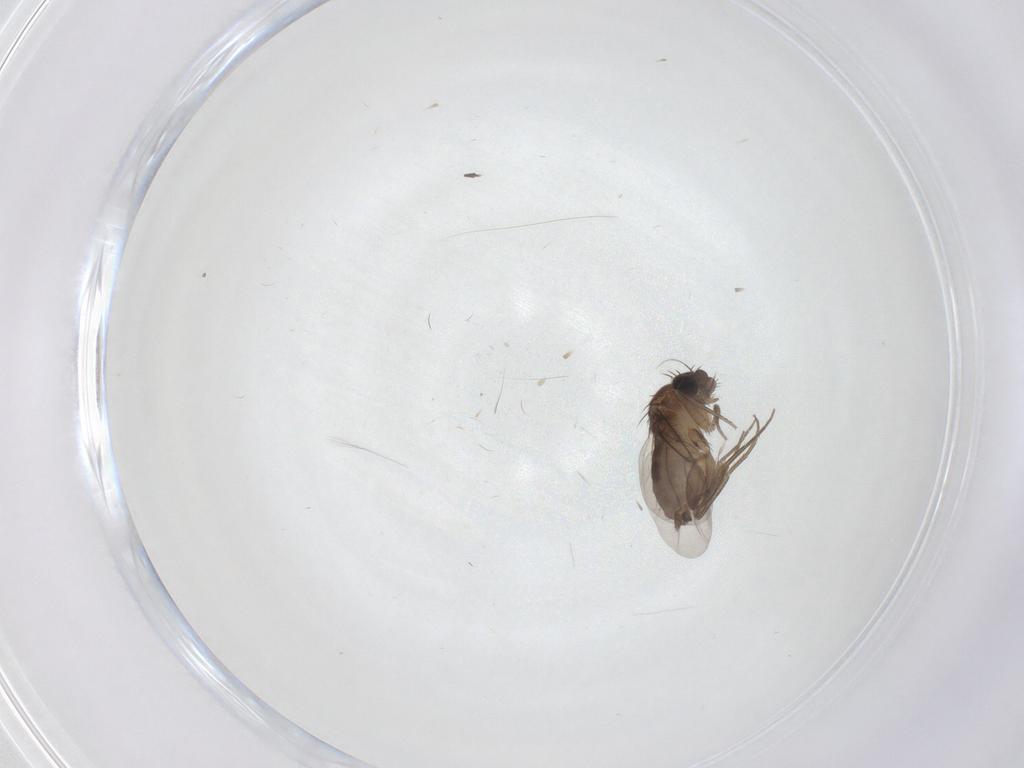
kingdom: Animalia
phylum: Arthropoda
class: Insecta
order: Diptera
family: Phoridae
